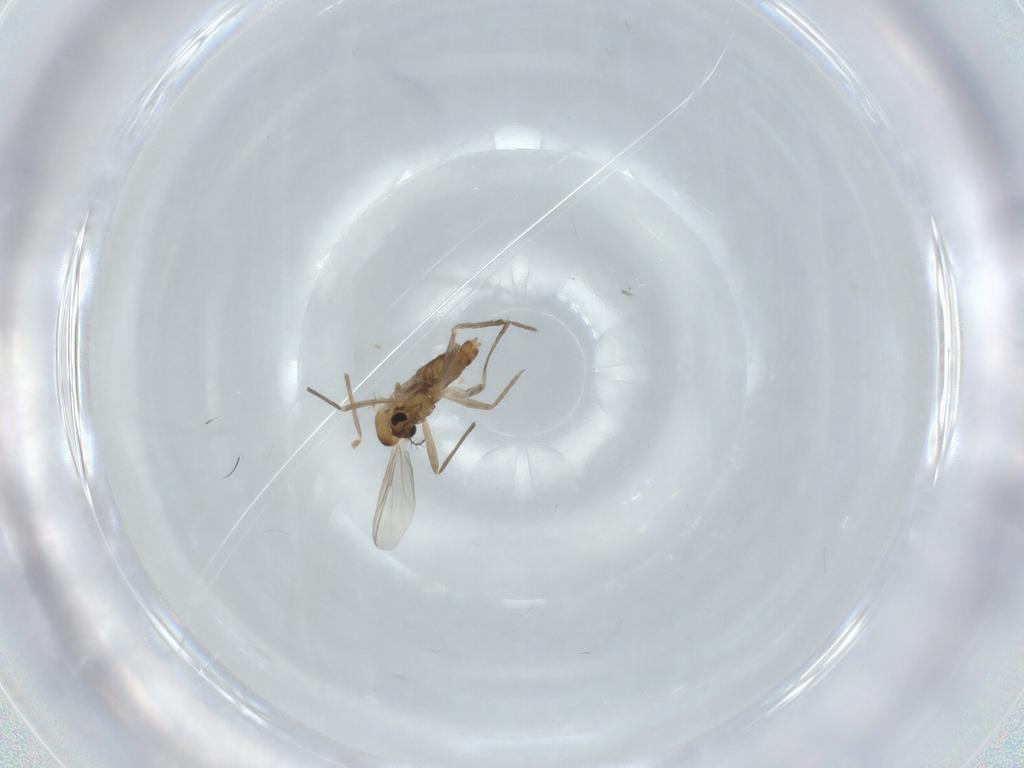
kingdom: Animalia
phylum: Arthropoda
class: Insecta
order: Diptera
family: Chironomidae
